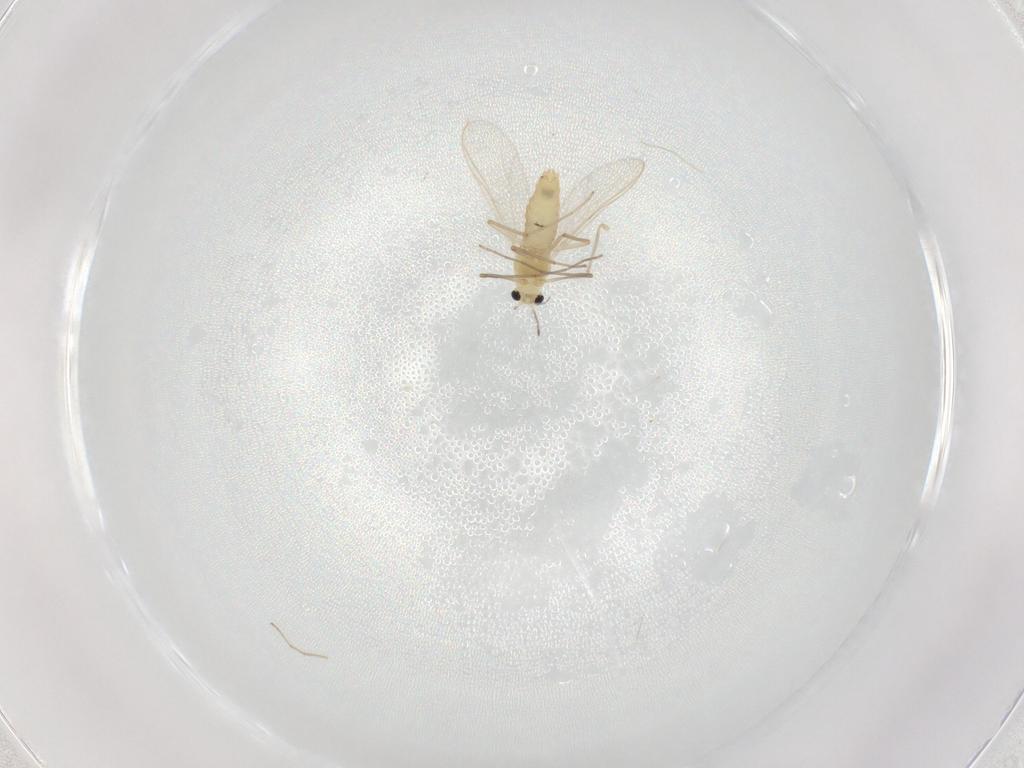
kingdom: Animalia
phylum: Arthropoda
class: Insecta
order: Diptera
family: Chironomidae
